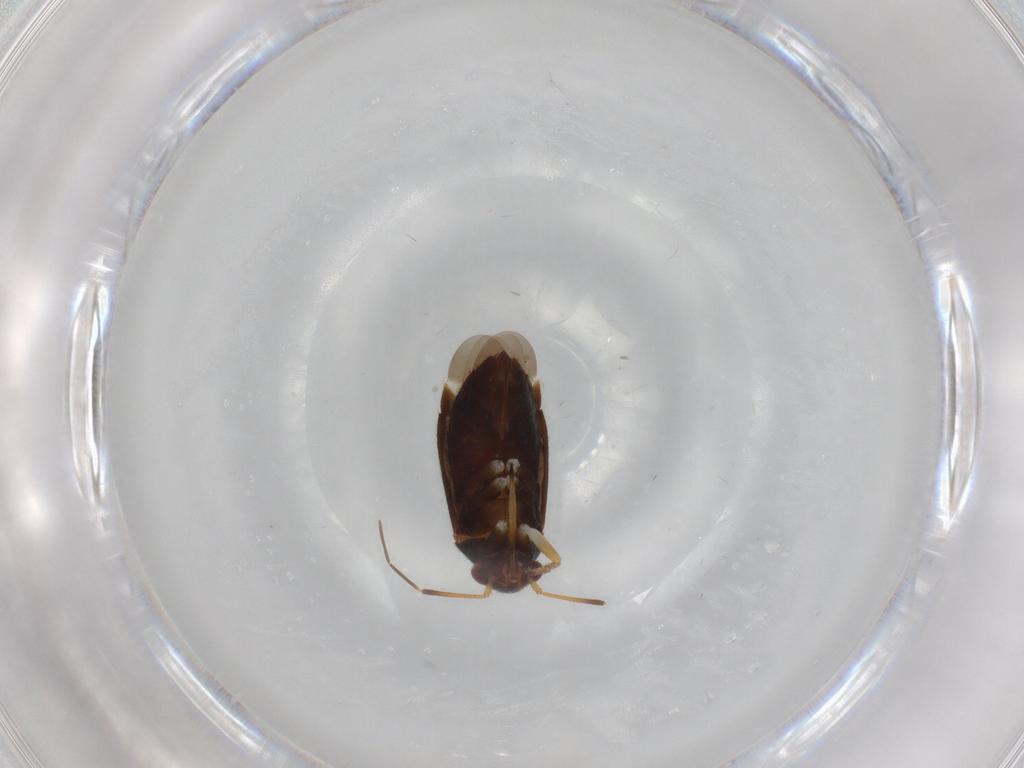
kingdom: Animalia
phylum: Arthropoda
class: Insecta
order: Hemiptera
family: Miridae
